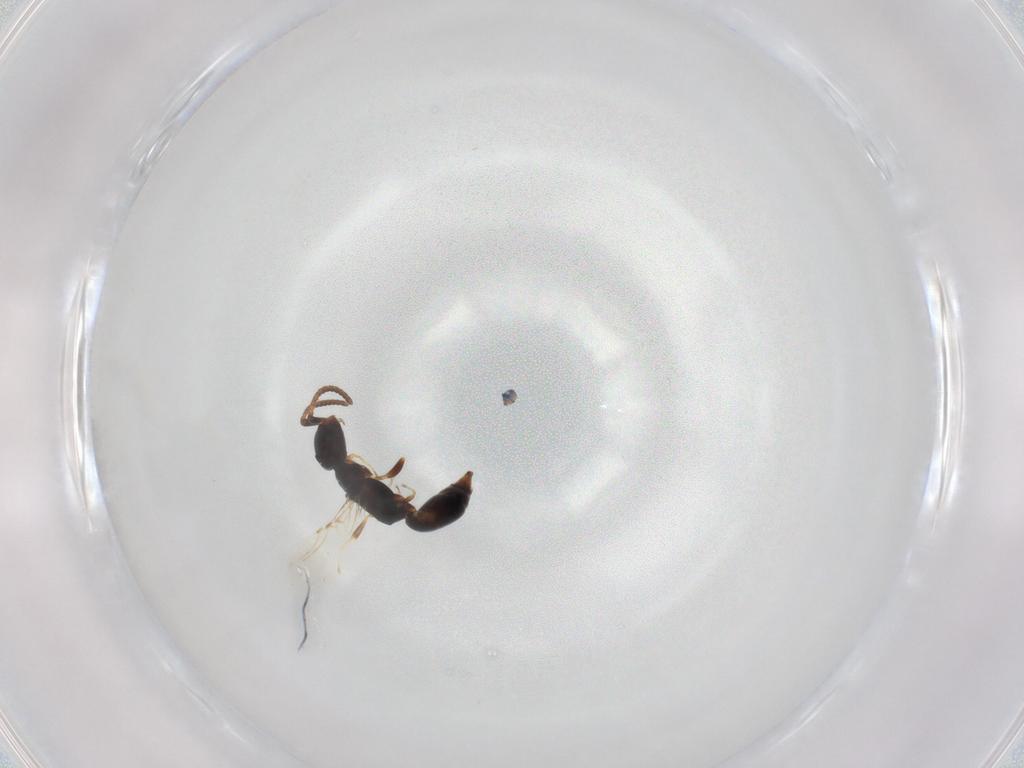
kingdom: Animalia
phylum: Arthropoda
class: Insecta
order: Hymenoptera
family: Bethylidae
